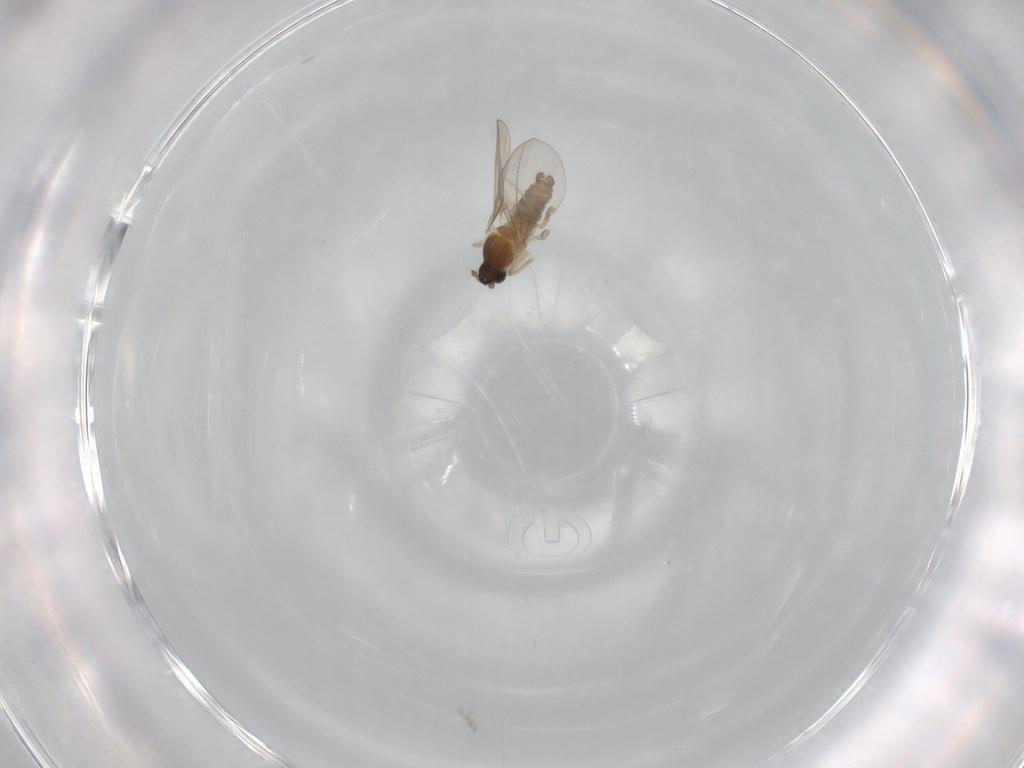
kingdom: Animalia
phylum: Arthropoda
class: Insecta
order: Diptera
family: Cecidomyiidae
